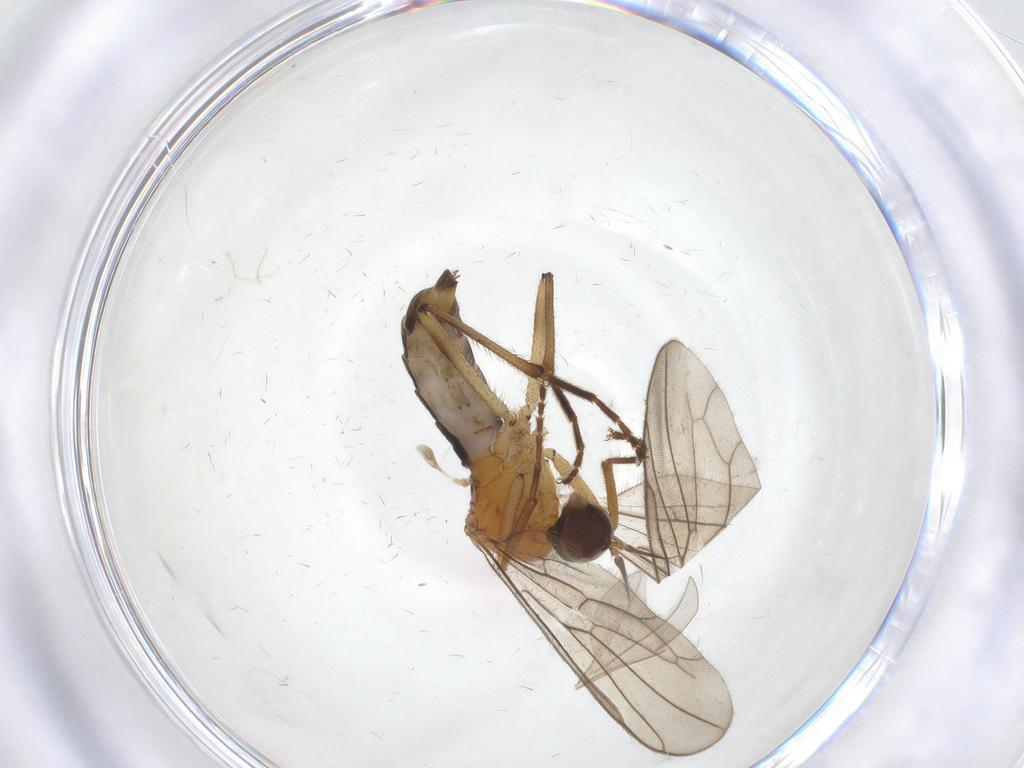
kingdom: Animalia
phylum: Arthropoda
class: Insecta
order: Diptera
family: Hybotidae
